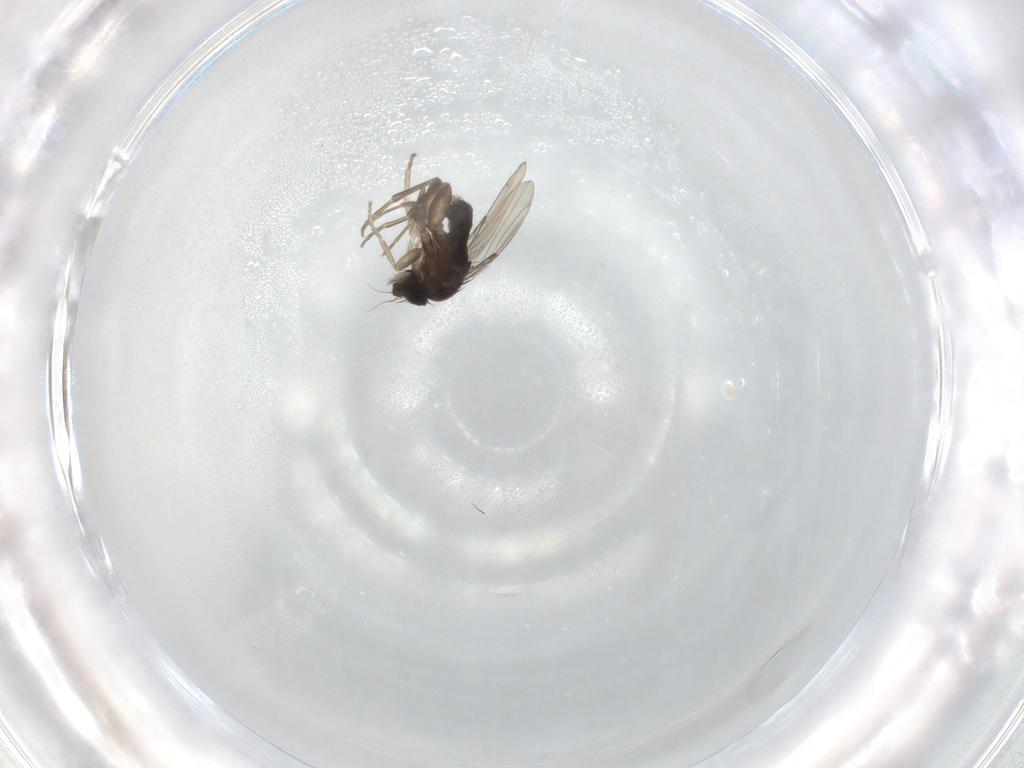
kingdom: Animalia
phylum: Arthropoda
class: Insecta
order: Diptera
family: Phoridae
